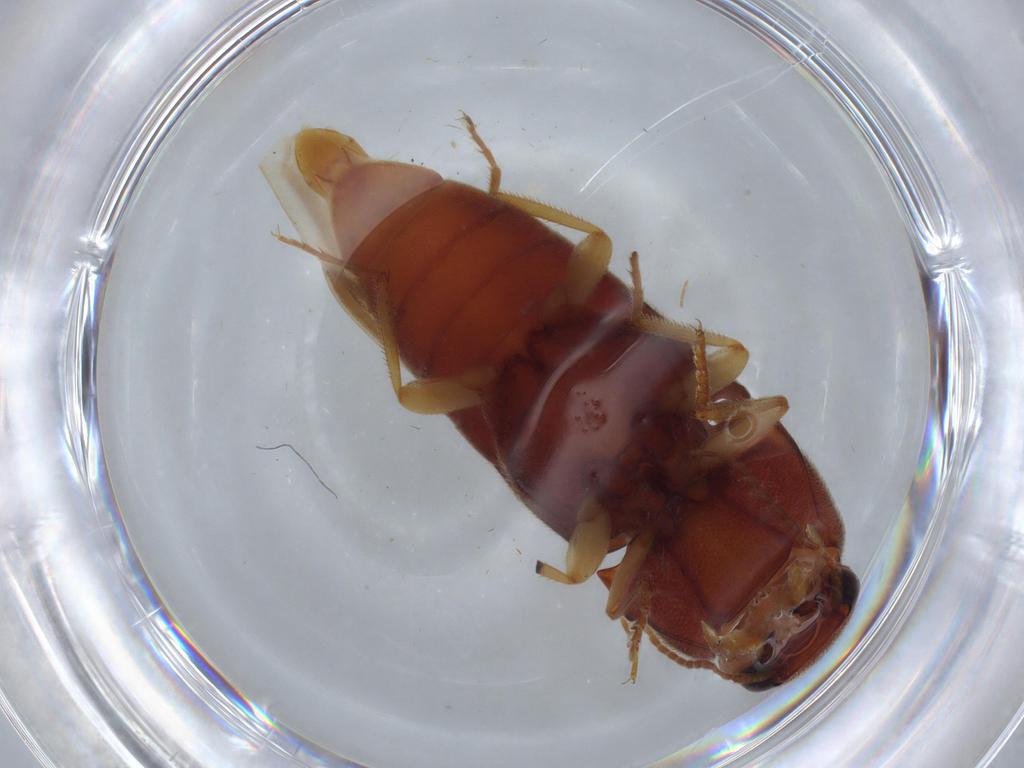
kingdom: Animalia
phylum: Arthropoda
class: Insecta
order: Coleoptera
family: Elateridae
